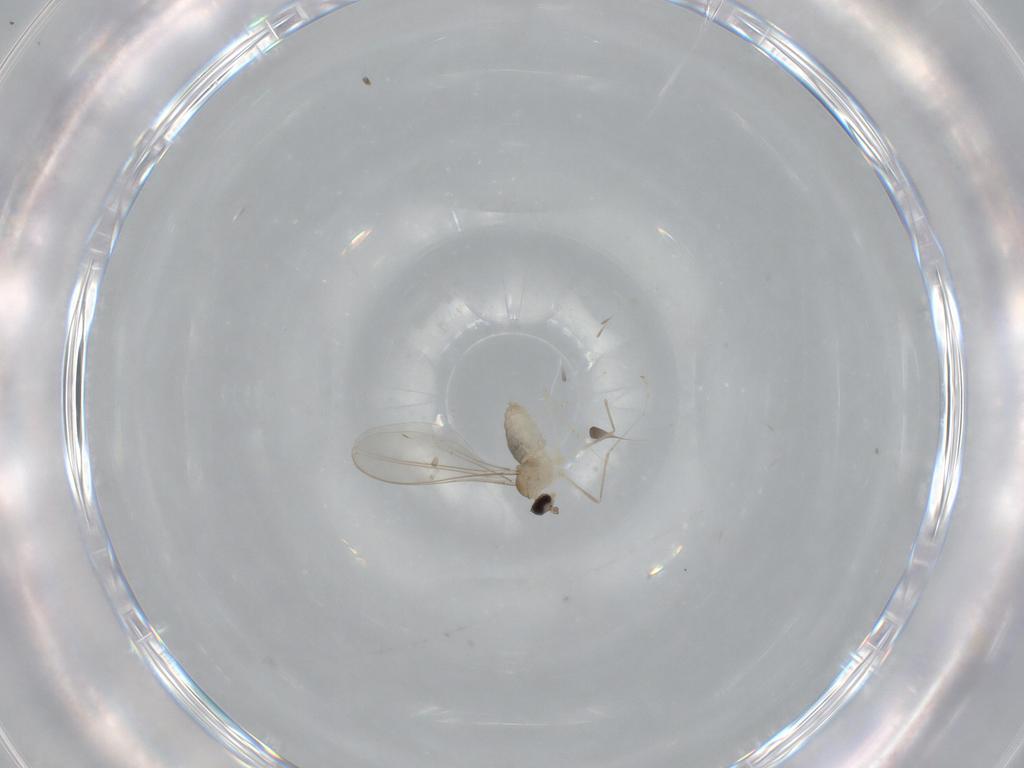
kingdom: Animalia
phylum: Arthropoda
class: Insecta
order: Diptera
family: Cecidomyiidae
